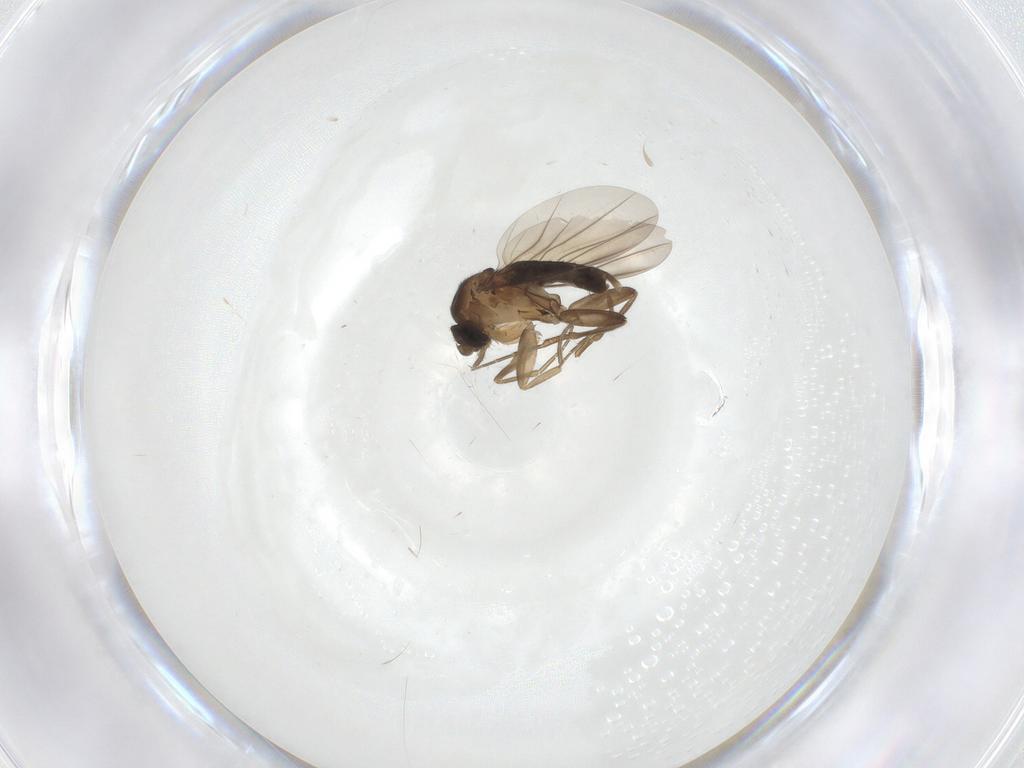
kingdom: Animalia
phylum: Arthropoda
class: Insecta
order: Diptera
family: Phoridae
